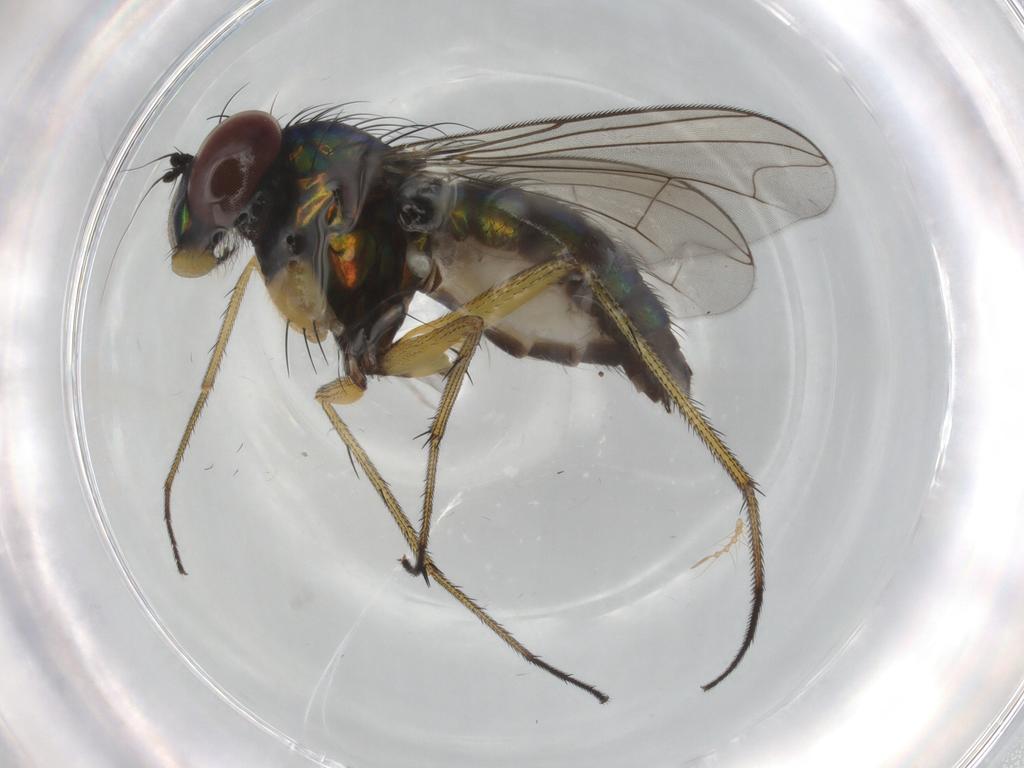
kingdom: Animalia
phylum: Arthropoda
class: Insecta
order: Diptera
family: Dolichopodidae
